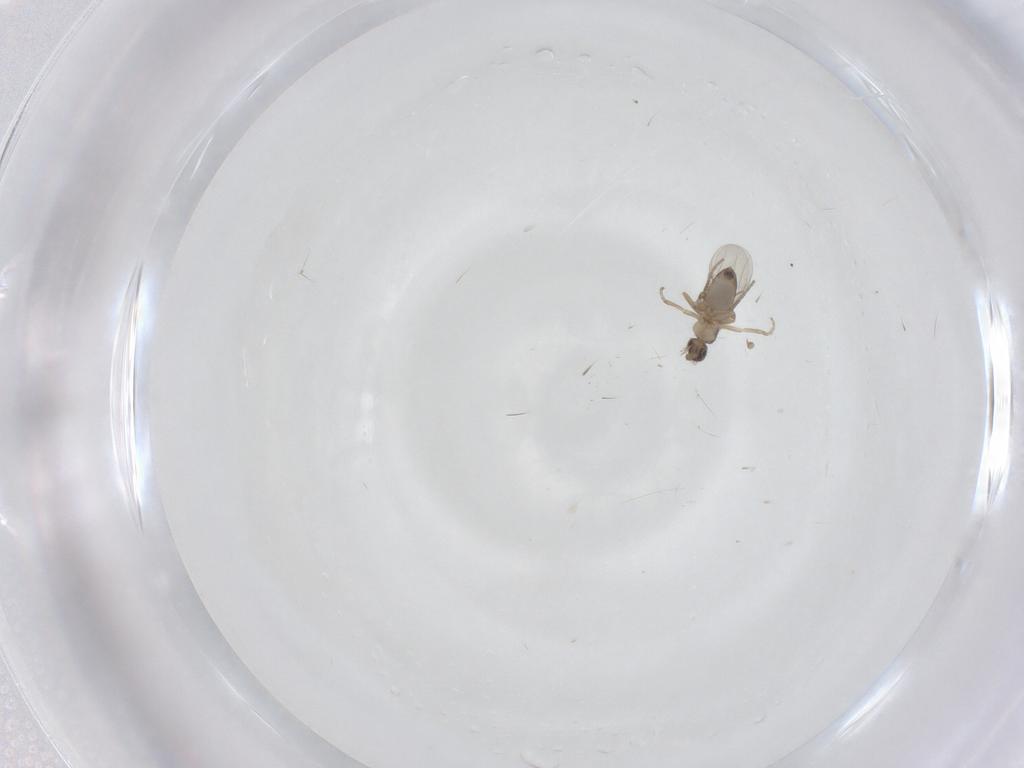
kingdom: Animalia
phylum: Arthropoda
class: Insecta
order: Diptera
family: Phoridae
